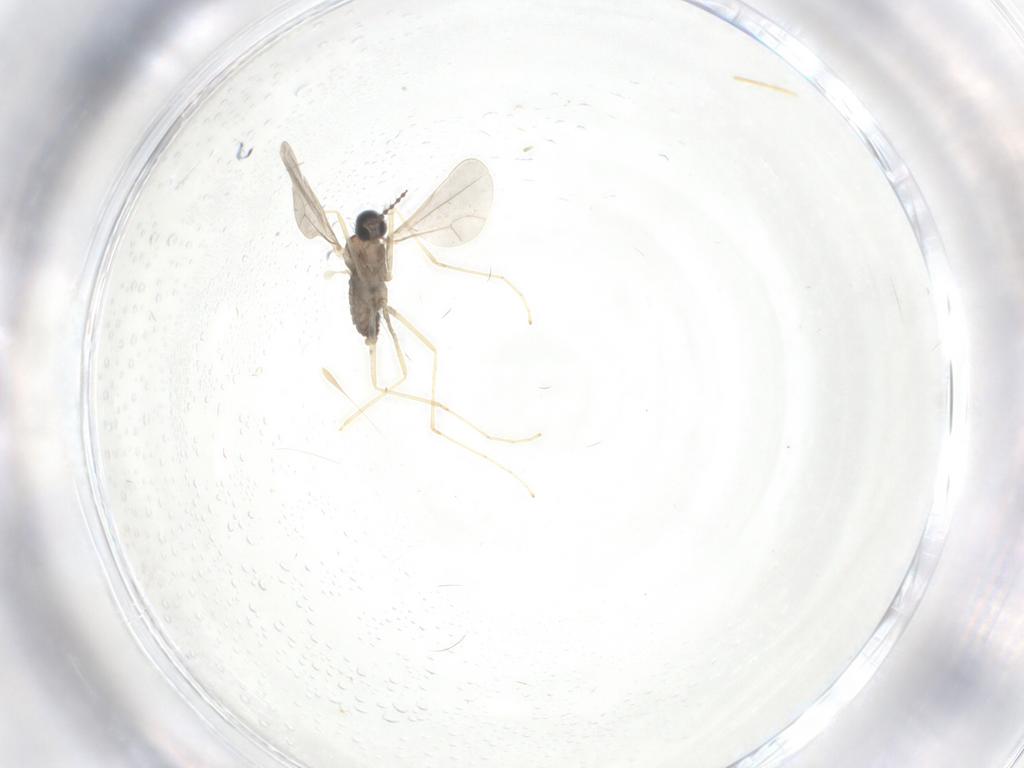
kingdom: Animalia
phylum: Arthropoda
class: Insecta
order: Diptera
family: Cecidomyiidae
